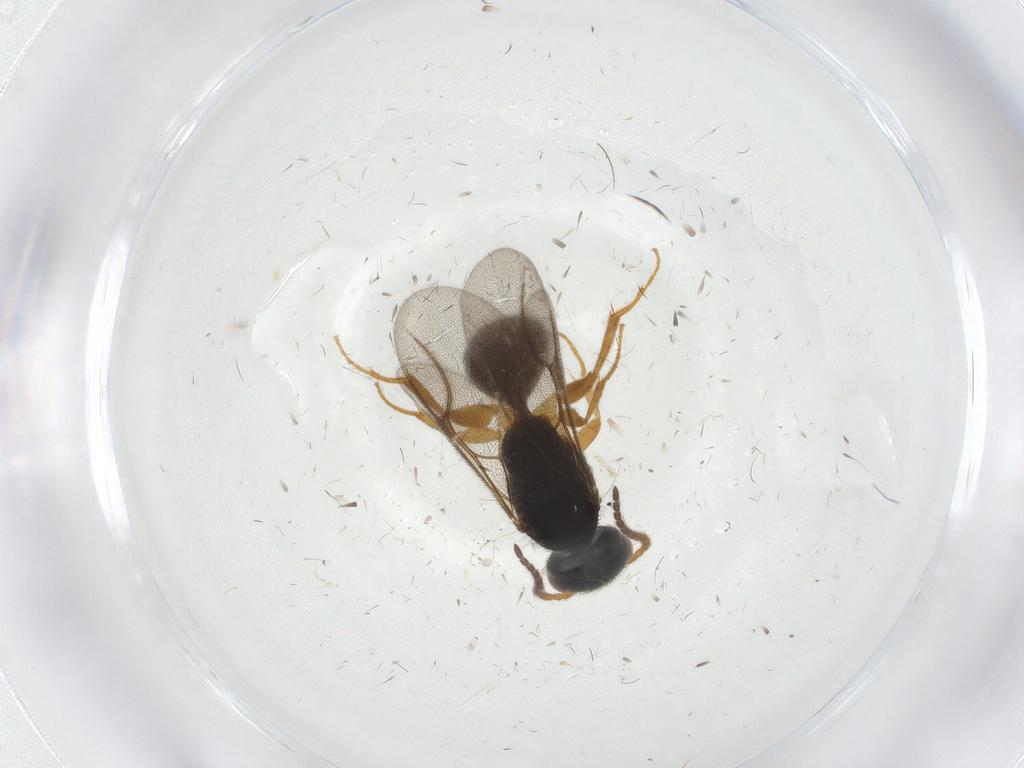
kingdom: Animalia
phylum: Arthropoda
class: Insecta
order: Hymenoptera
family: Bethylidae
